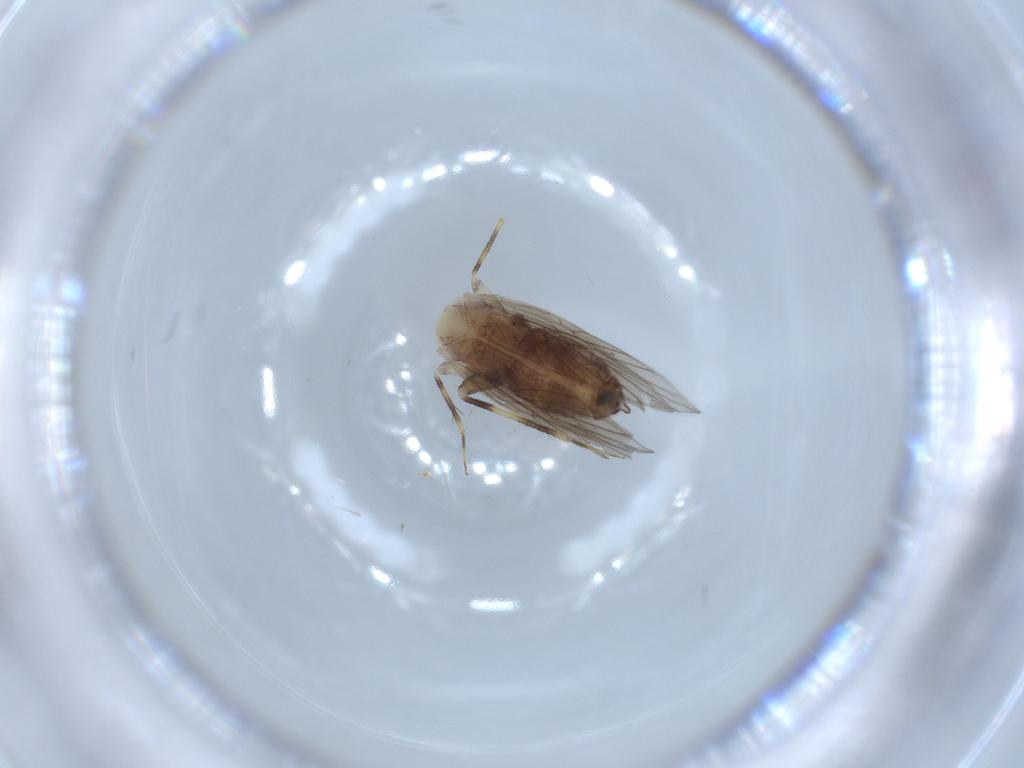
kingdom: Animalia
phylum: Arthropoda
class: Insecta
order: Psocodea
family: Lepidopsocidae
